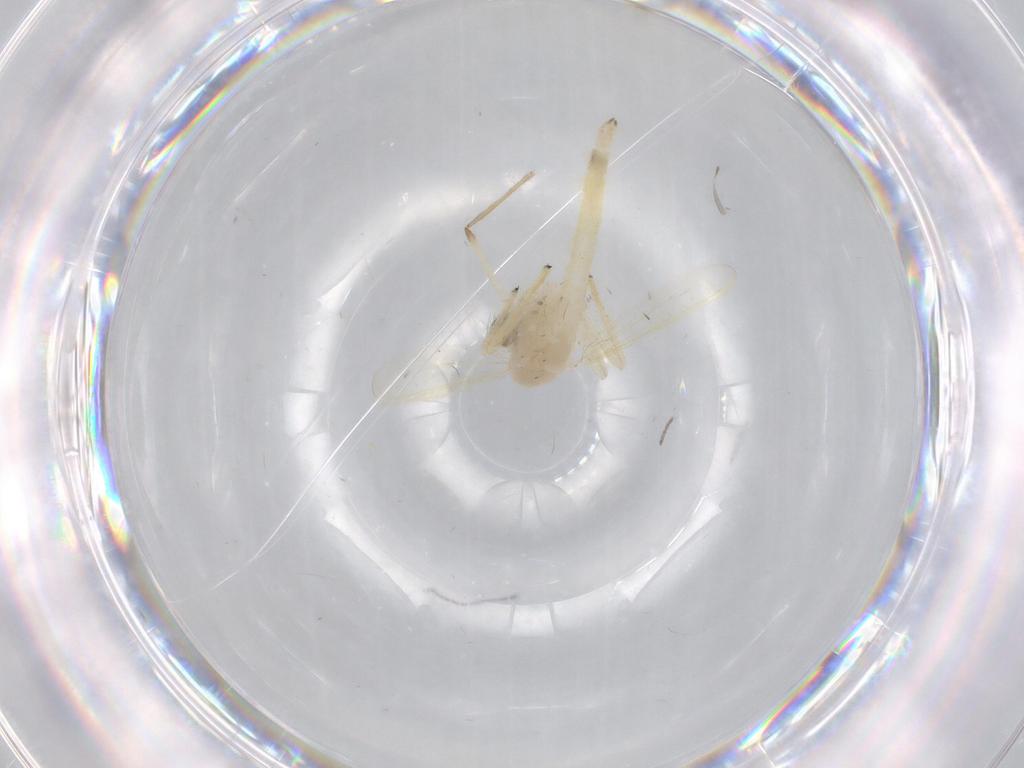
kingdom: Animalia
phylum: Arthropoda
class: Insecta
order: Diptera
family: Chironomidae
